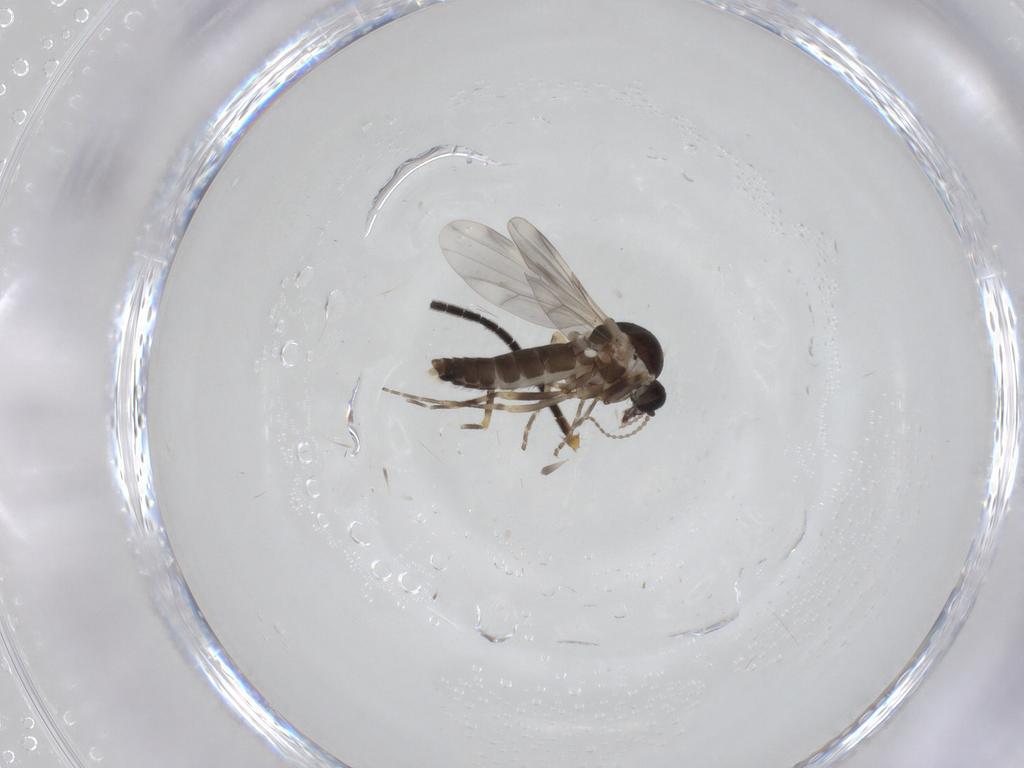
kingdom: Animalia
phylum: Arthropoda
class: Insecta
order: Diptera
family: Ceratopogonidae
